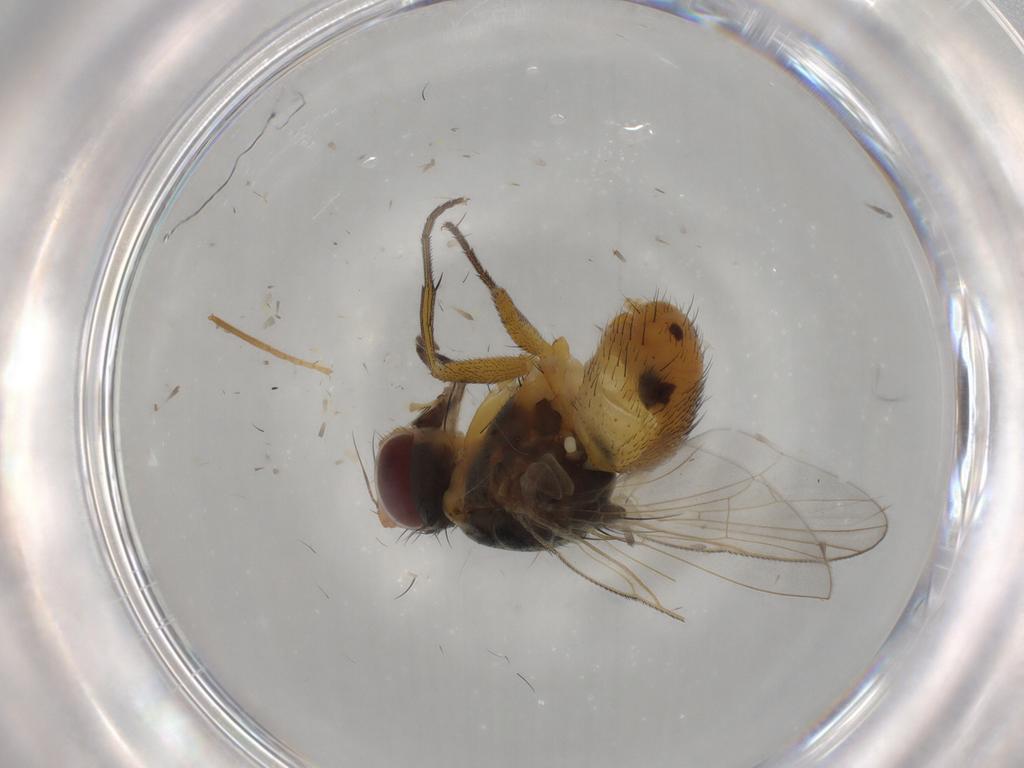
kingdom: Animalia
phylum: Arthropoda
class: Insecta
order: Diptera
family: Muscidae
